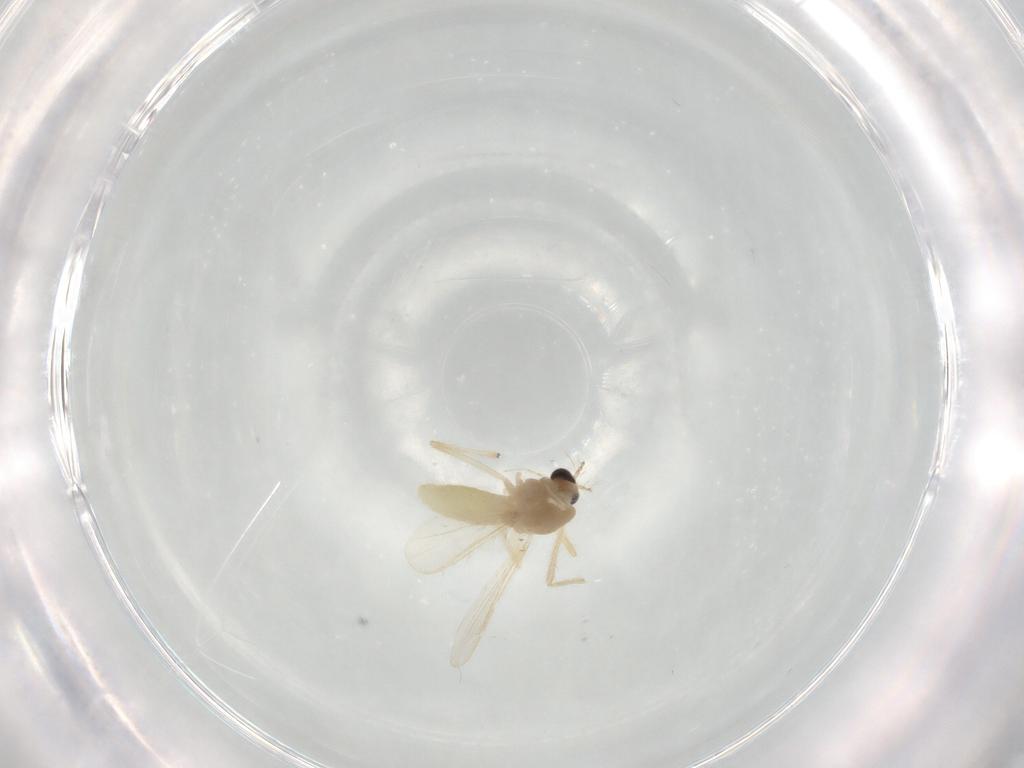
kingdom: Animalia
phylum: Arthropoda
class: Insecta
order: Diptera
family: Chironomidae
